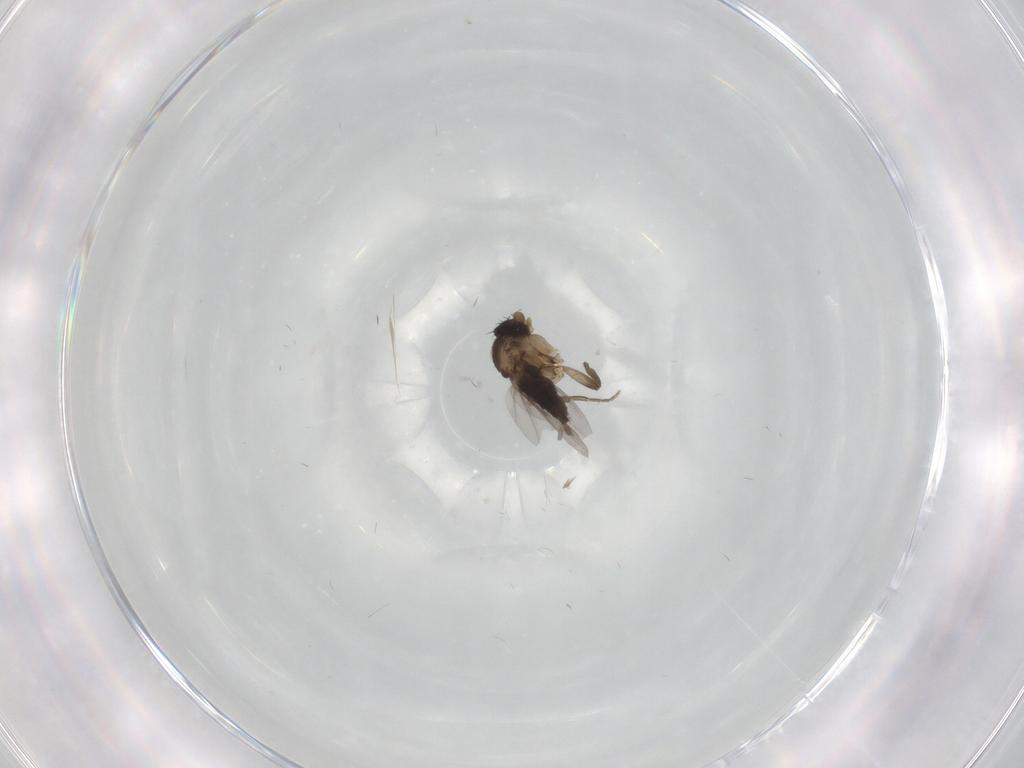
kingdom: Animalia
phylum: Arthropoda
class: Insecta
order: Diptera
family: Phoridae
